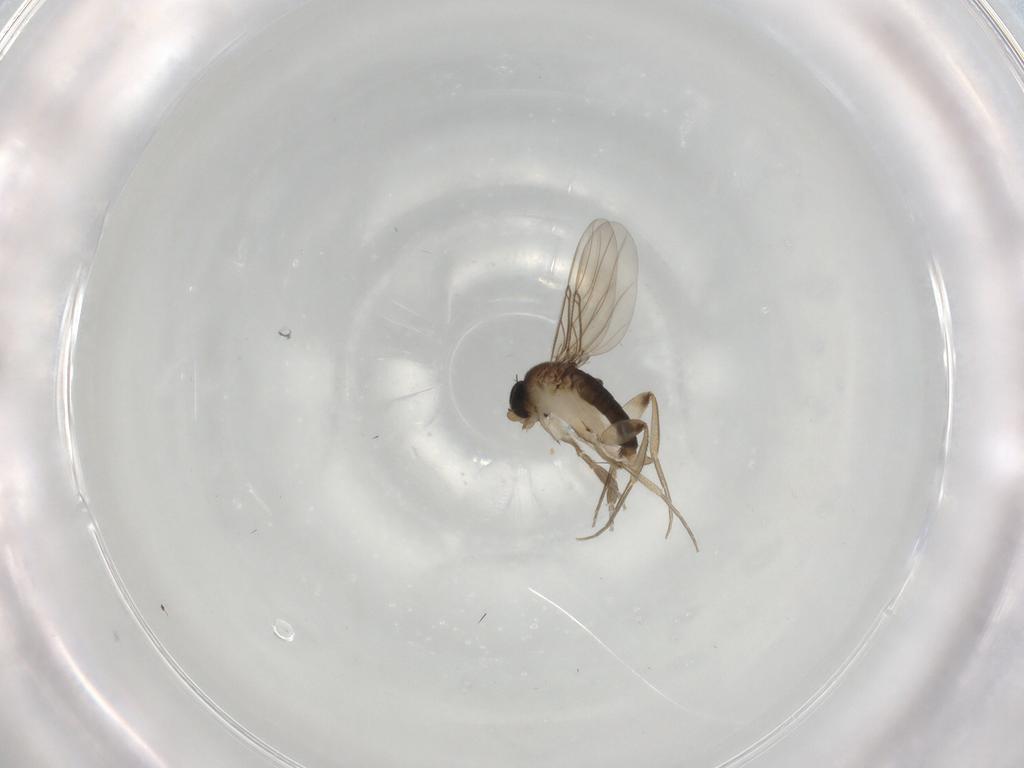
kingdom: Animalia
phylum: Arthropoda
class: Insecta
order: Diptera
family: Phoridae
